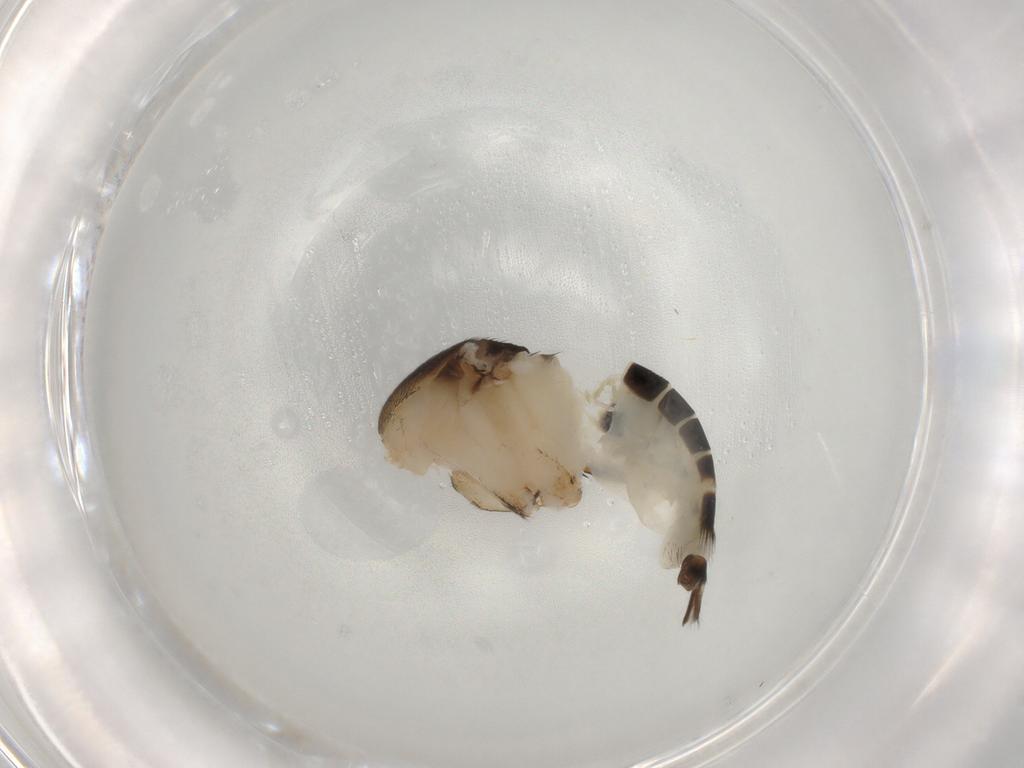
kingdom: Animalia
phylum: Arthropoda
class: Insecta
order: Diptera
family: Phoridae
